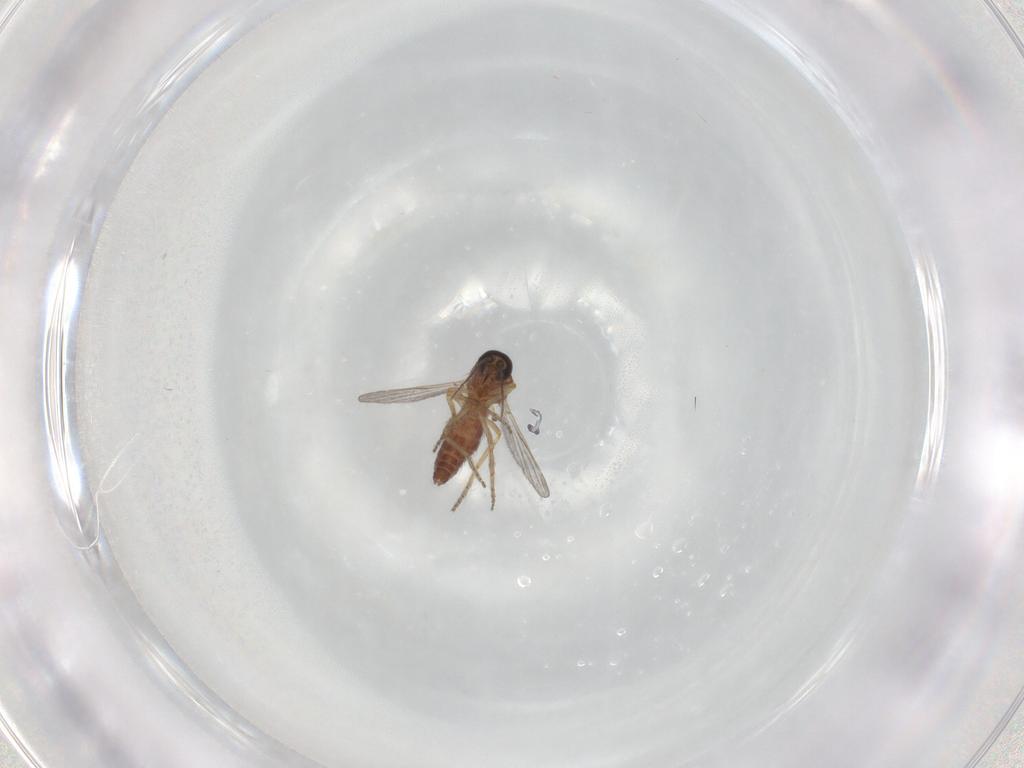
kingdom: Animalia
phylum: Arthropoda
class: Insecta
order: Diptera
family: Ceratopogonidae
